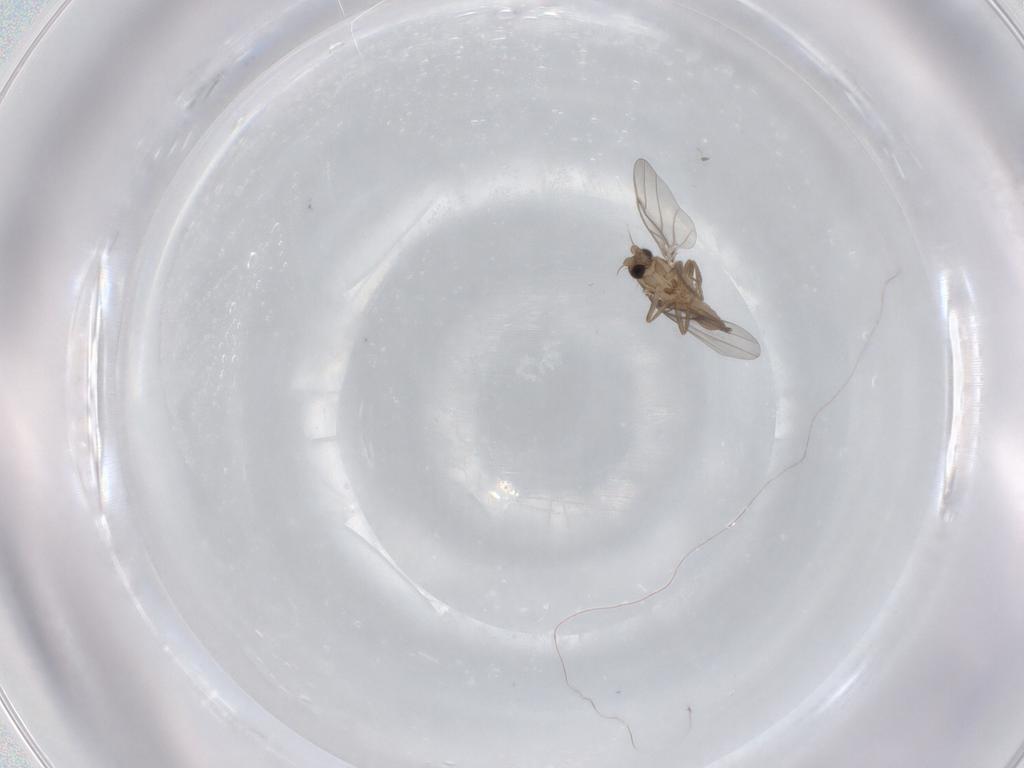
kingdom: Animalia
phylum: Arthropoda
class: Insecta
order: Diptera
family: Psychodidae
